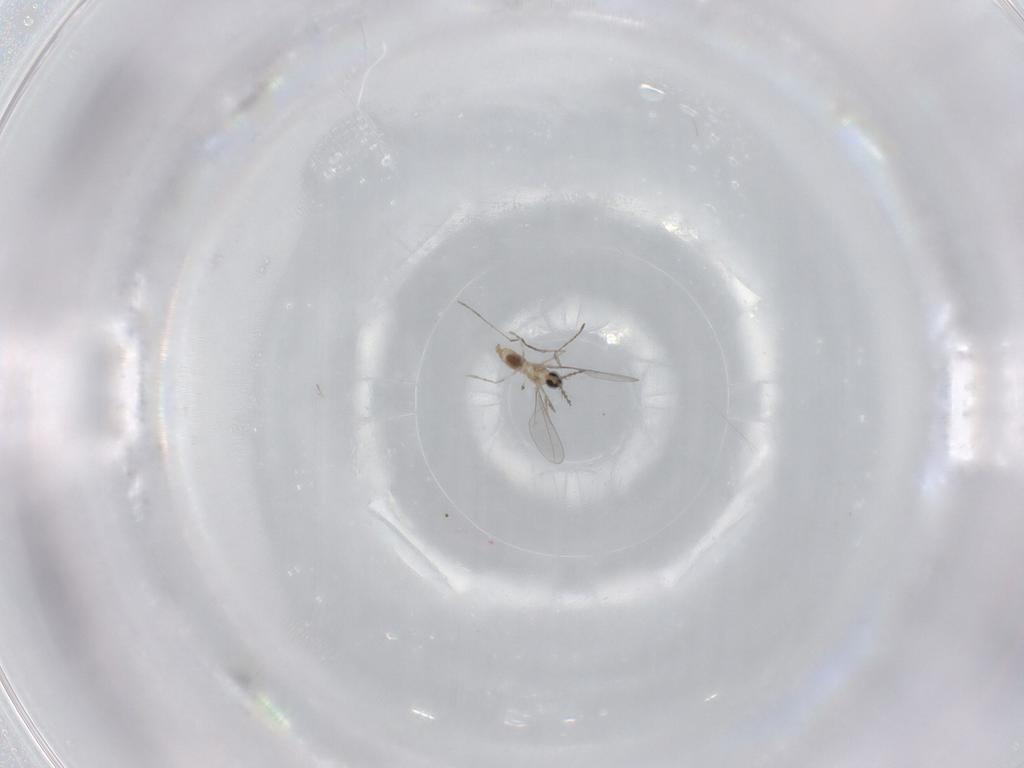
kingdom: Animalia
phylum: Arthropoda
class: Insecta
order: Diptera
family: Cecidomyiidae
